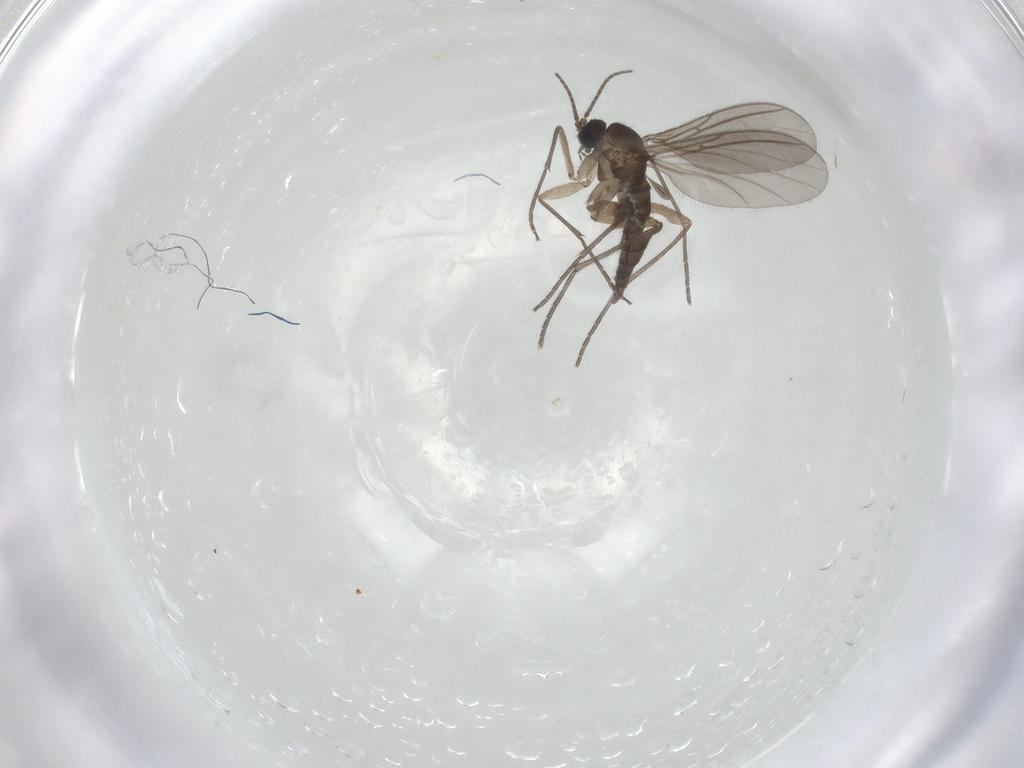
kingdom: Animalia
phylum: Arthropoda
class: Insecta
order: Diptera
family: Sciaridae
